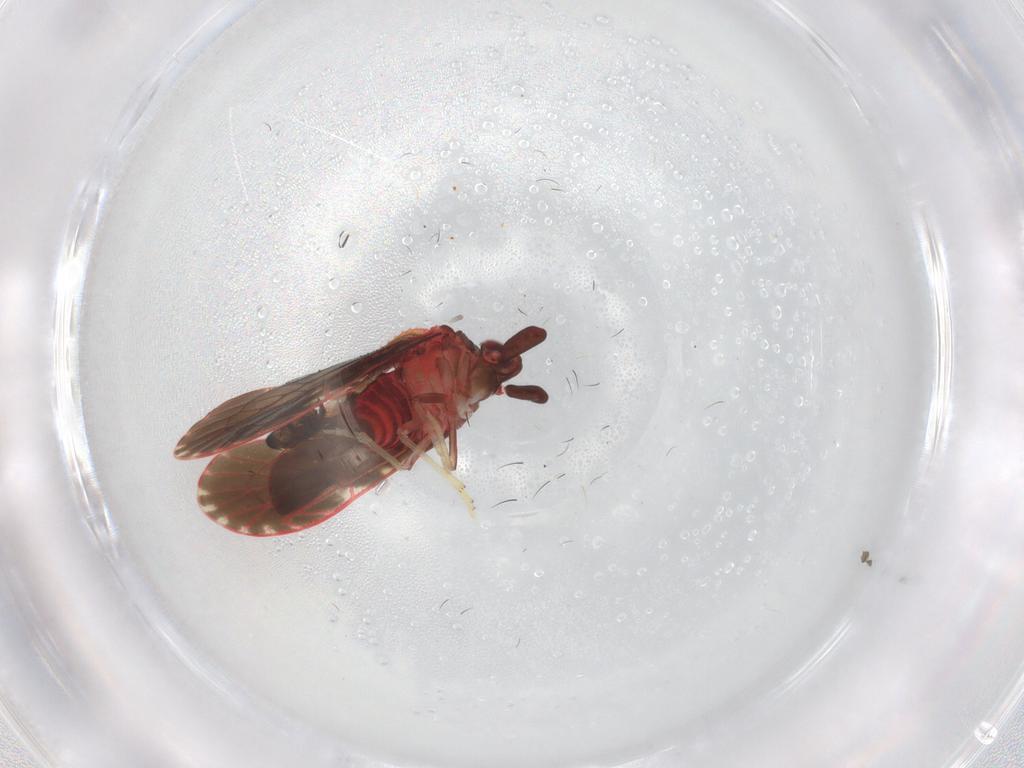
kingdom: Animalia
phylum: Arthropoda
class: Insecta
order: Hemiptera
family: Derbidae
